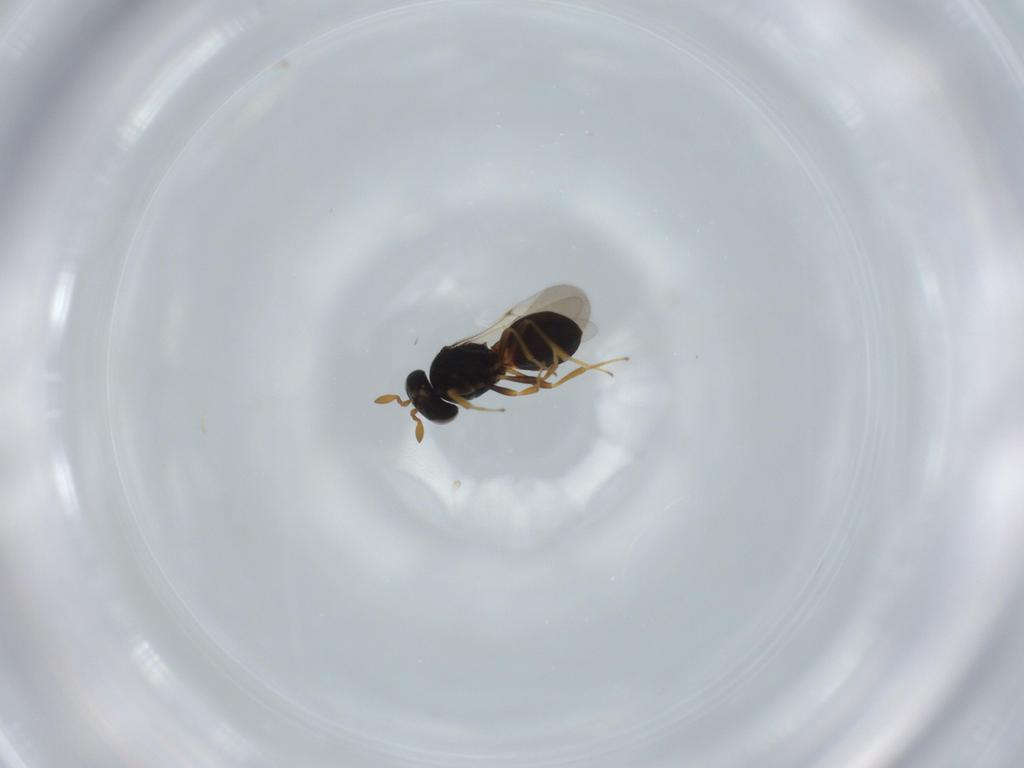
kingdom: Animalia
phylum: Arthropoda
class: Insecta
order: Hymenoptera
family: Scelionidae
